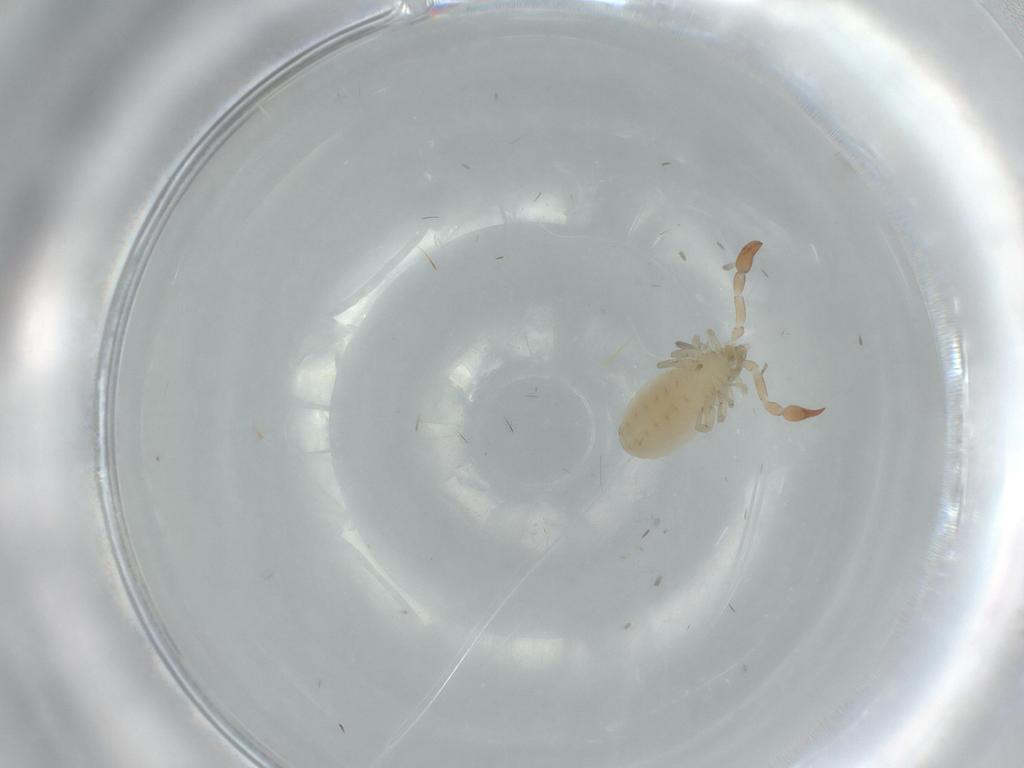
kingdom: Animalia
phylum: Arthropoda
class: Arachnida
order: Pseudoscorpiones
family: Withiidae
